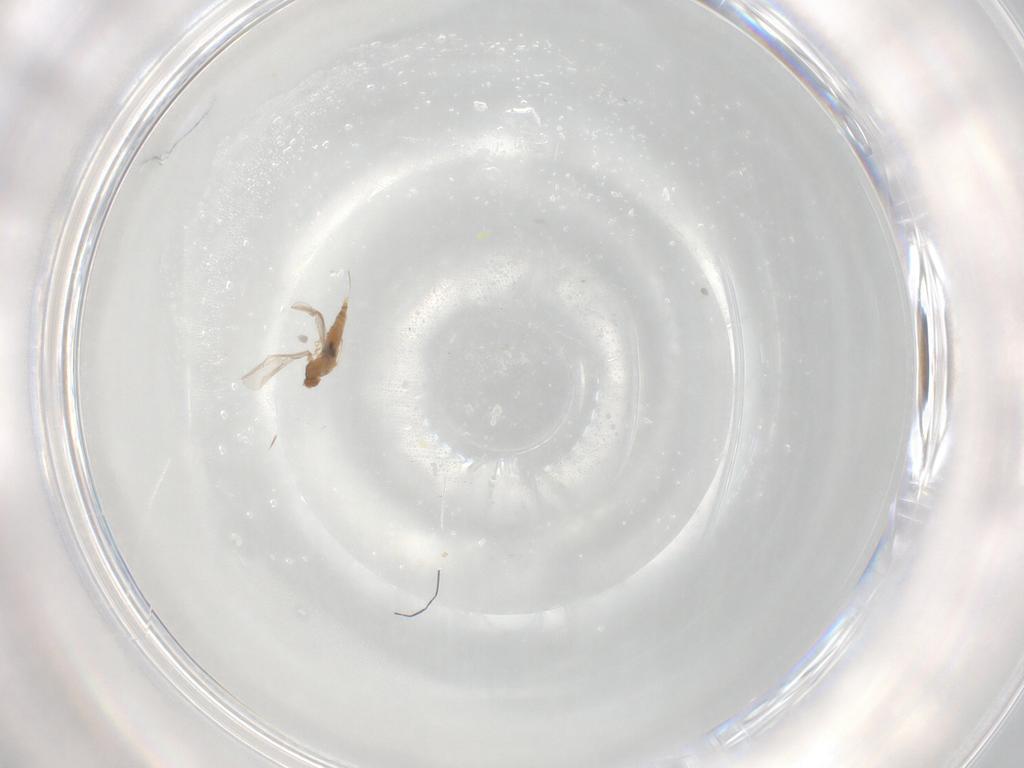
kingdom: Animalia
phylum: Arthropoda
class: Insecta
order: Diptera
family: Cecidomyiidae
